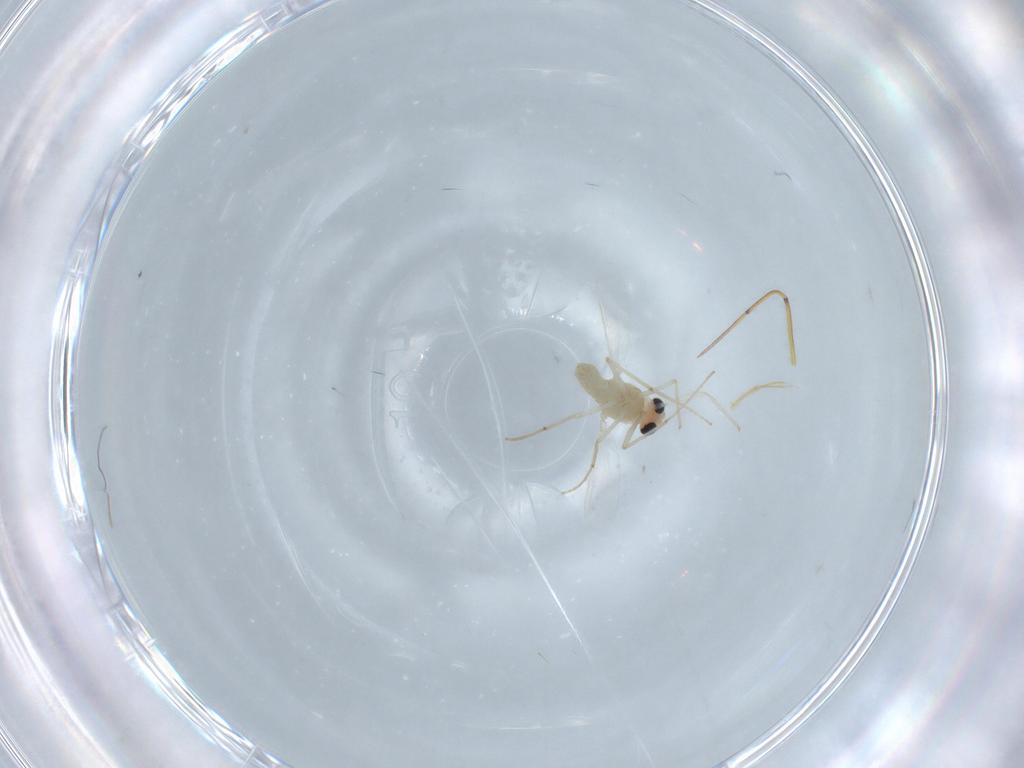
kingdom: Animalia
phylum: Arthropoda
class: Insecta
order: Diptera
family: Chironomidae
